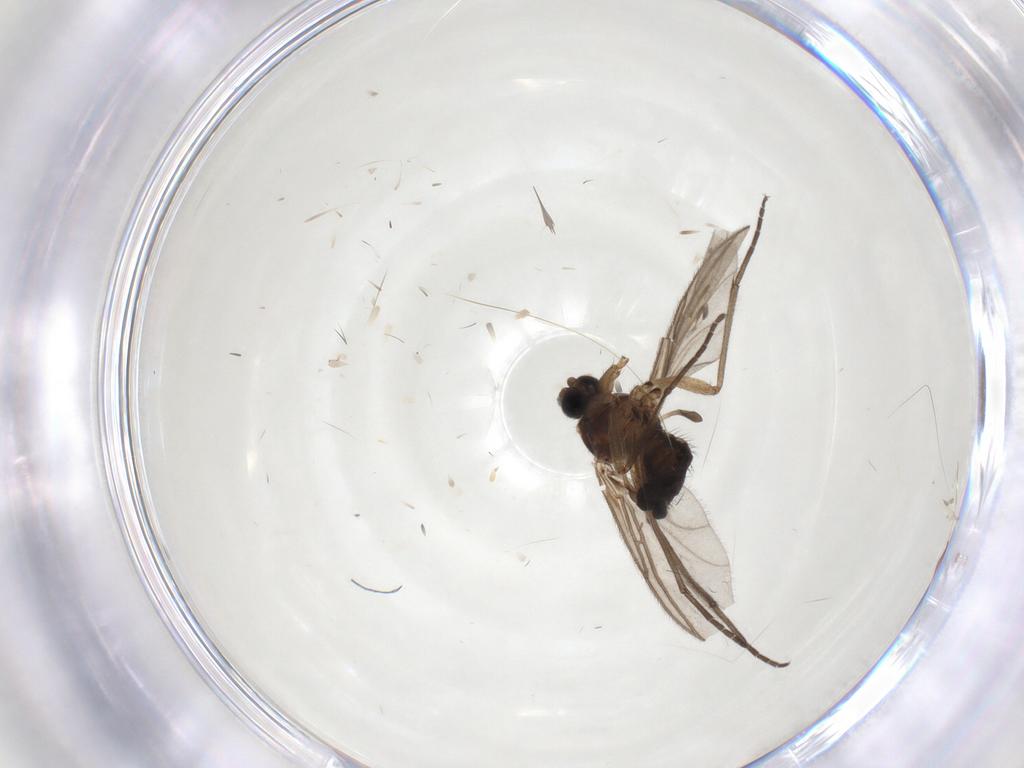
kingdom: Animalia
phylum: Arthropoda
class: Insecta
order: Diptera
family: Sciaridae
